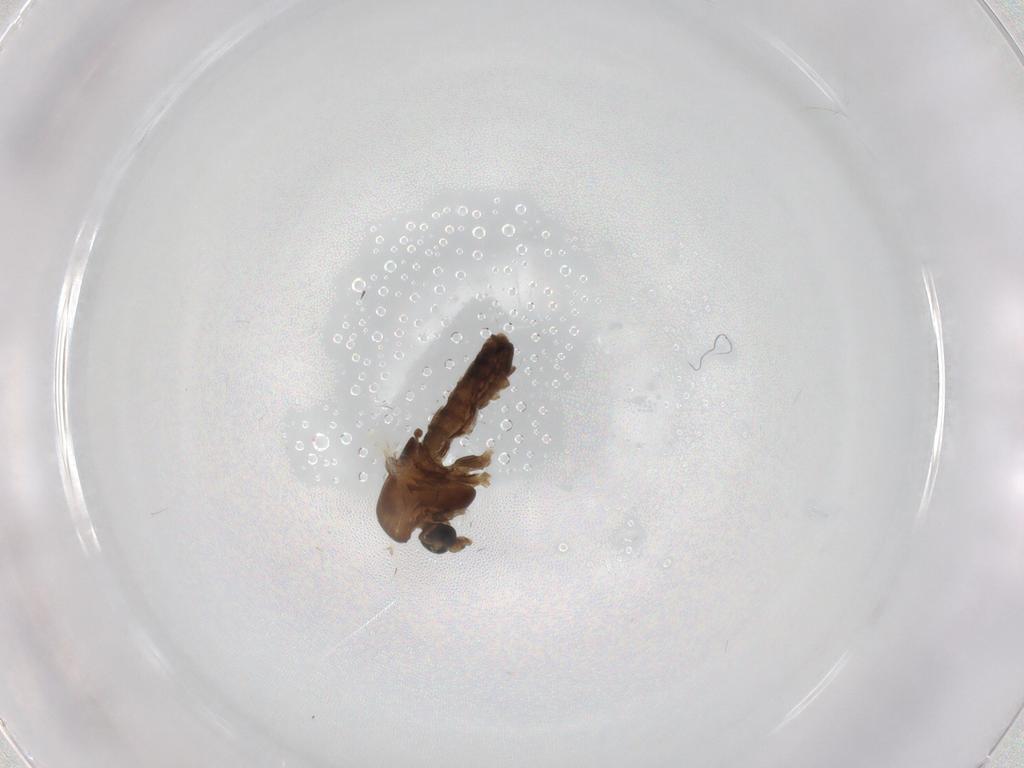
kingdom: Animalia
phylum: Arthropoda
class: Insecta
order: Diptera
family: Chironomidae
